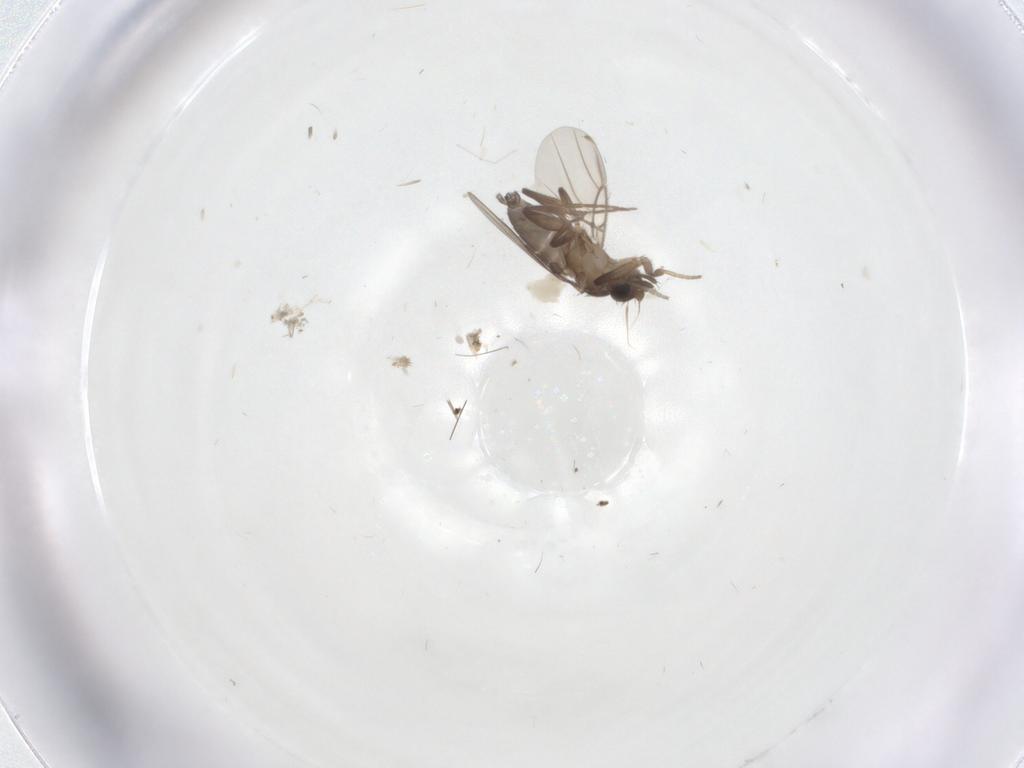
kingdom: Animalia
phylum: Arthropoda
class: Insecta
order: Diptera
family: Cecidomyiidae
